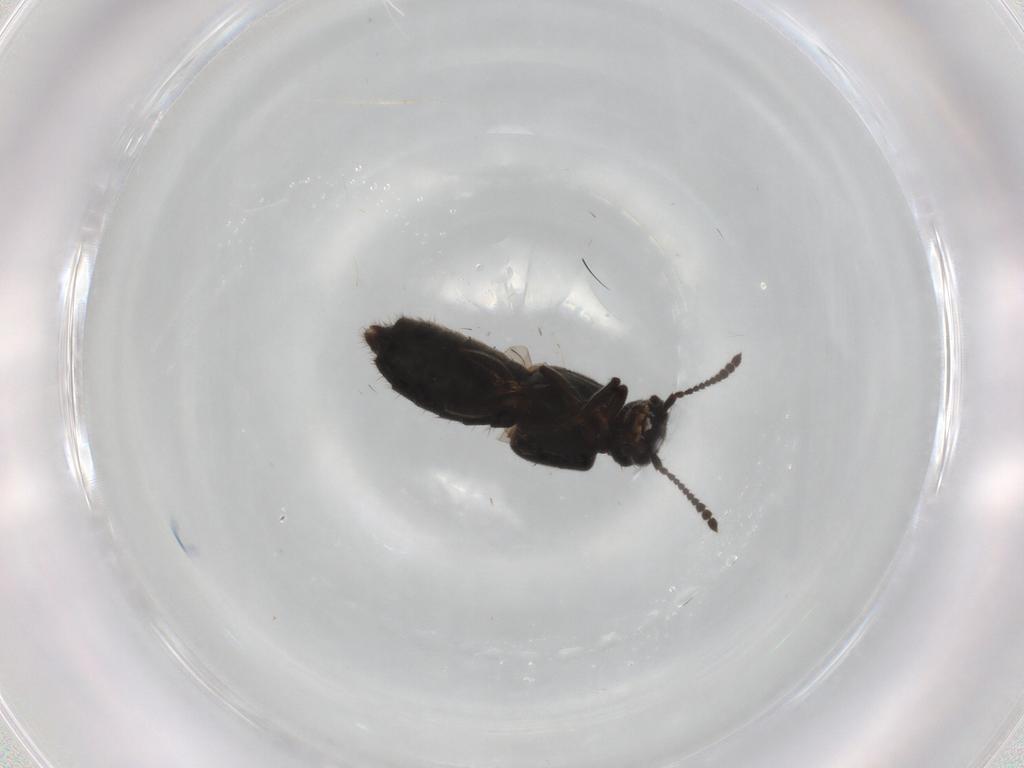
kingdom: Animalia
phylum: Arthropoda
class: Insecta
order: Coleoptera
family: Staphylinidae
